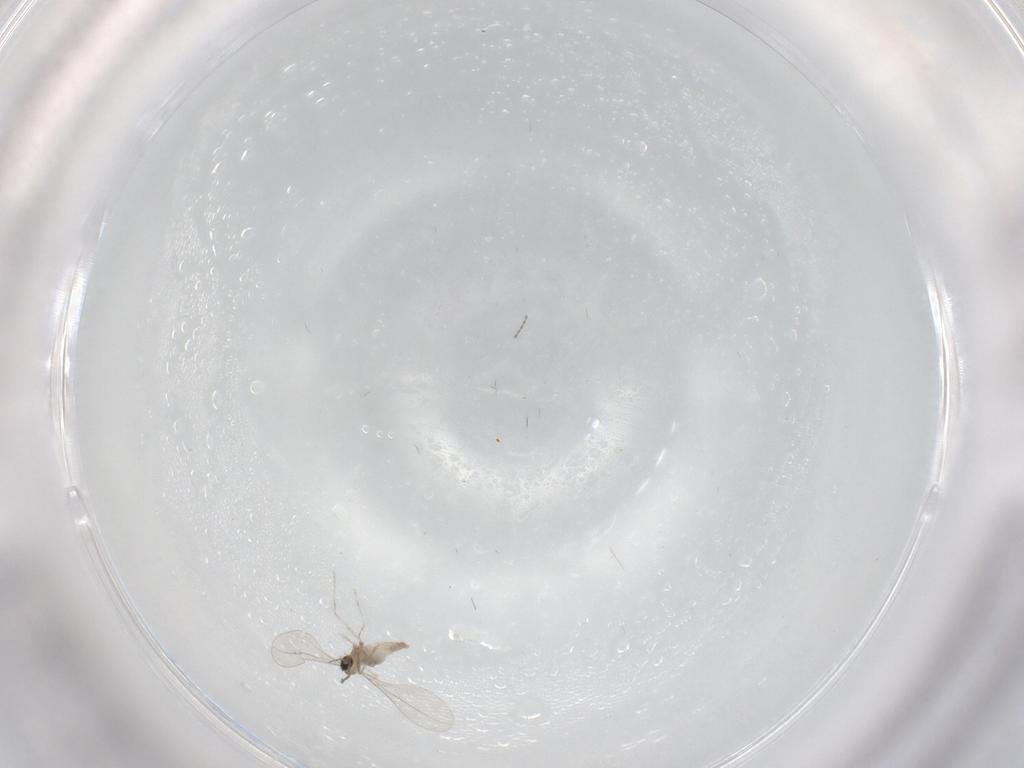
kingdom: Animalia
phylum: Arthropoda
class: Insecta
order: Diptera
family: Cecidomyiidae
